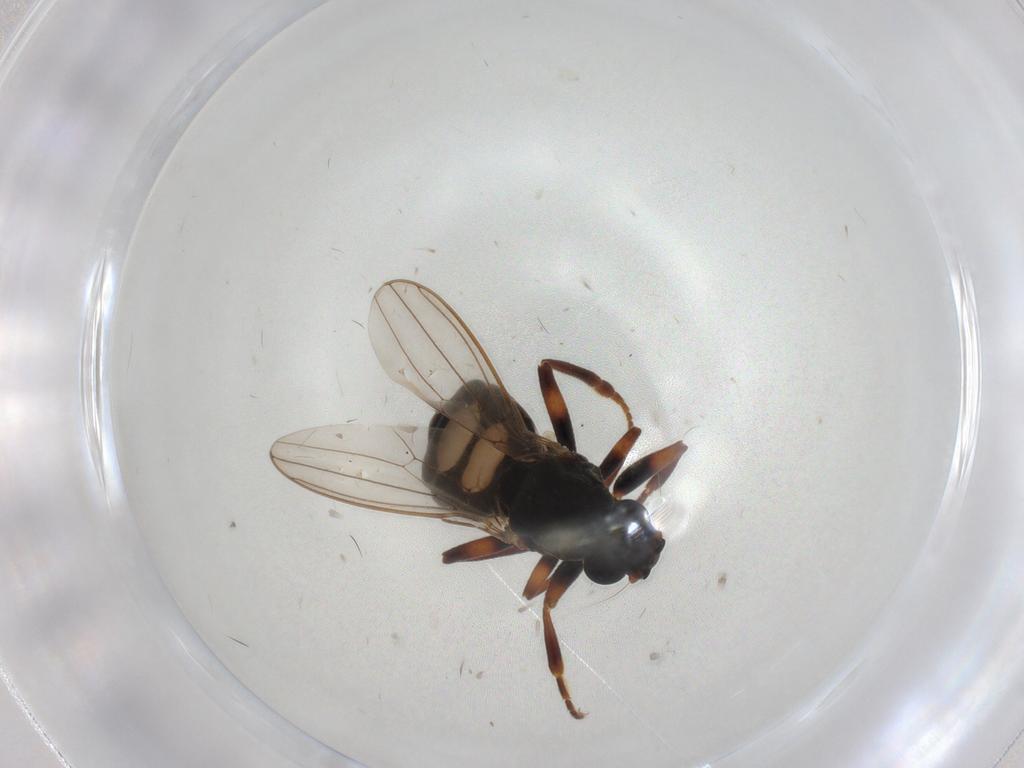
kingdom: Animalia
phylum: Arthropoda
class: Insecta
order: Diptera
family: Sphaeroceridae
